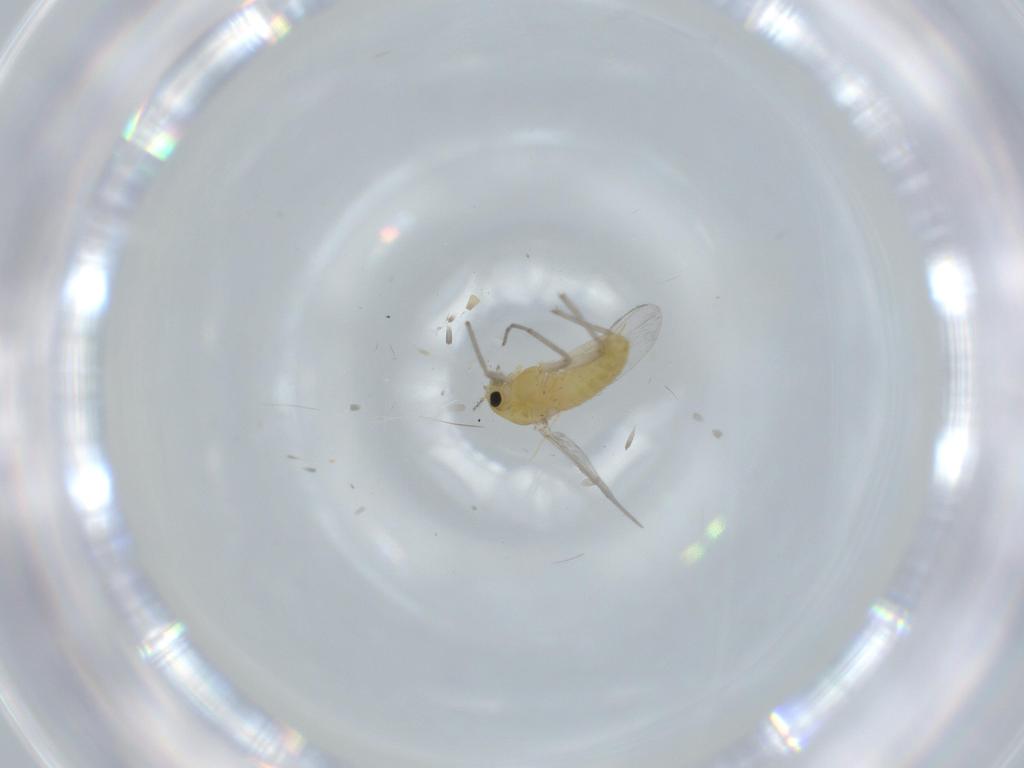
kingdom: Animalia
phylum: Arthropoda
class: Insecta
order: Diptera
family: Chironomidae
